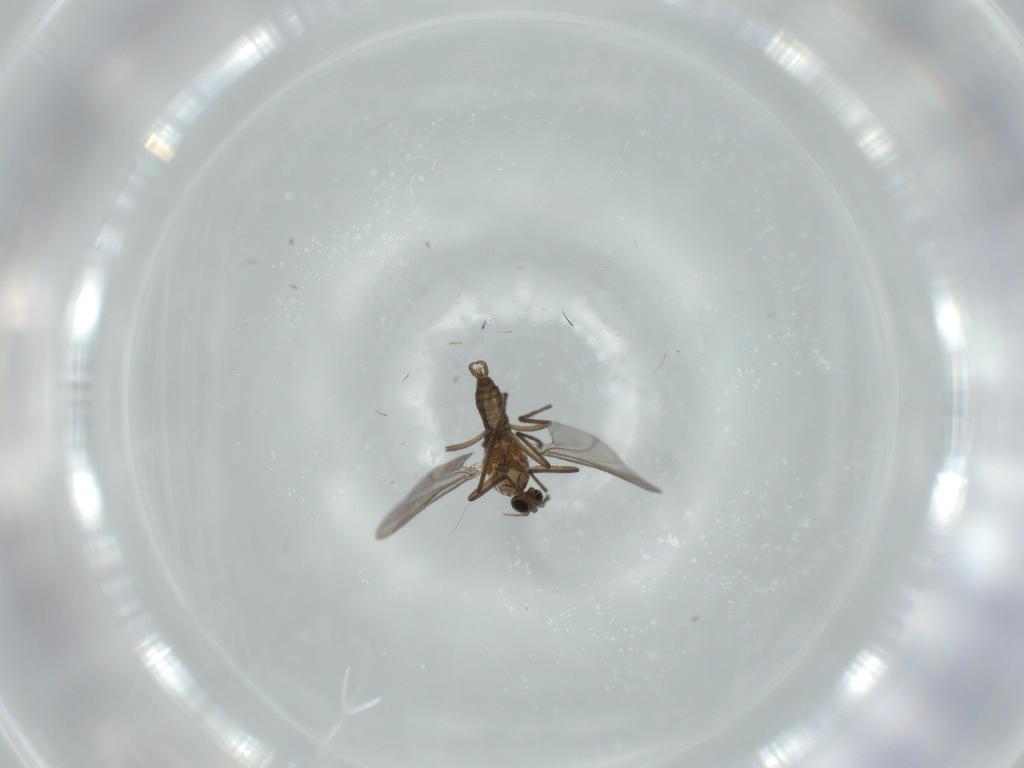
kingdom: Animalia
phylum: Arthropoda
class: Insecta
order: Diptera
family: Cecidomyiidae
